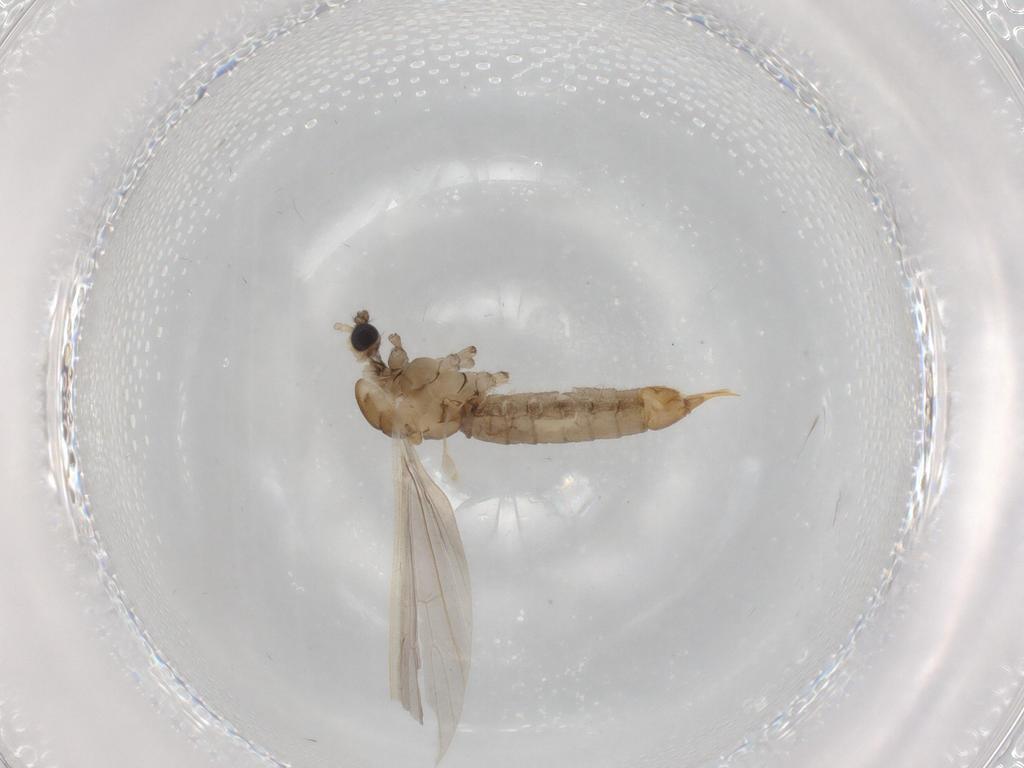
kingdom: Animalia
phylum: Arthropoda
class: Insecta
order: Diptera
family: Limoniidae
